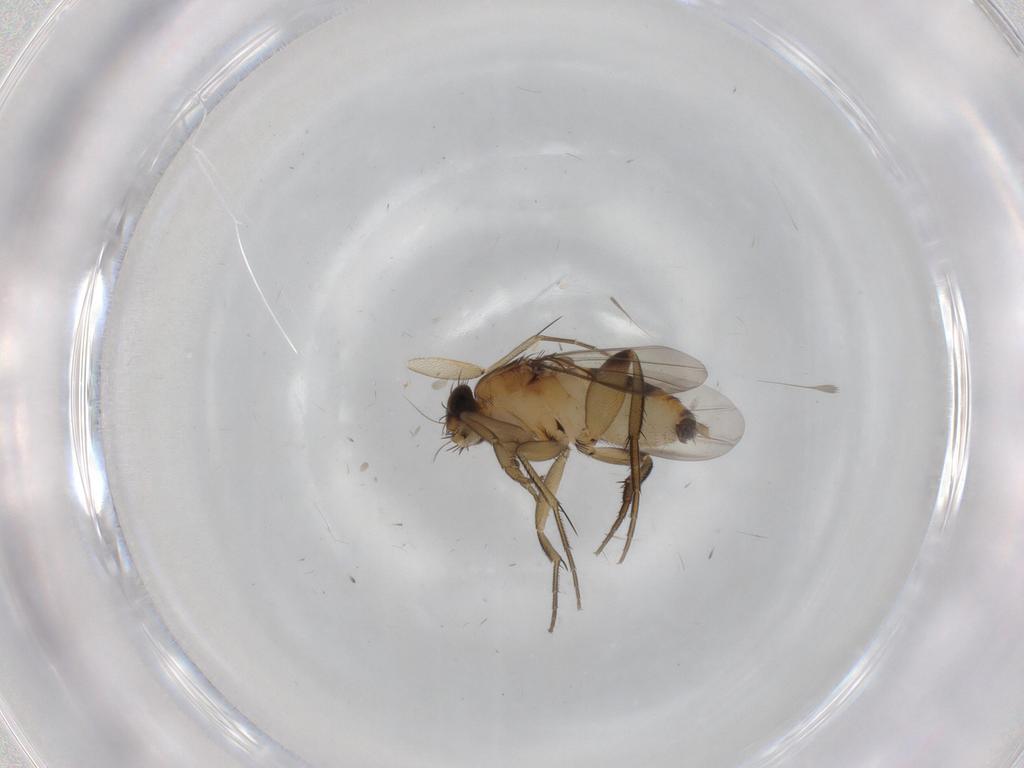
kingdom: Animalia
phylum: Arthropoda
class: Insecta
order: Diptera
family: Phoridae
